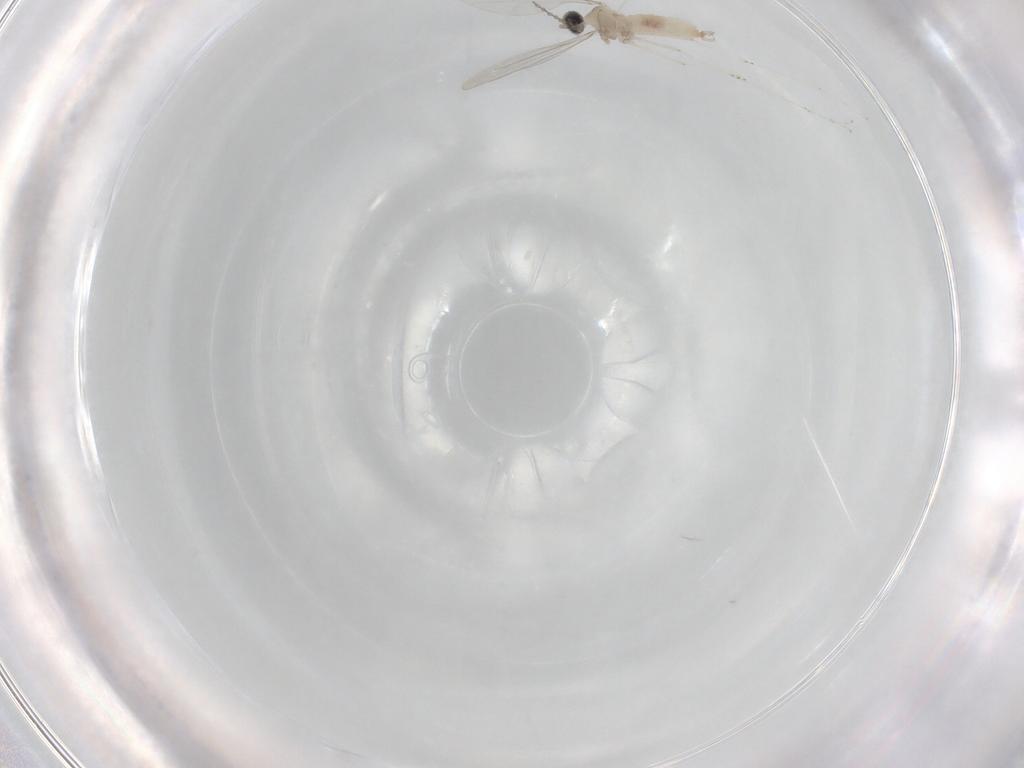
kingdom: Animalia
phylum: Arthropoda
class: Insecta
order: Diptera
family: Cecidomyiidae
